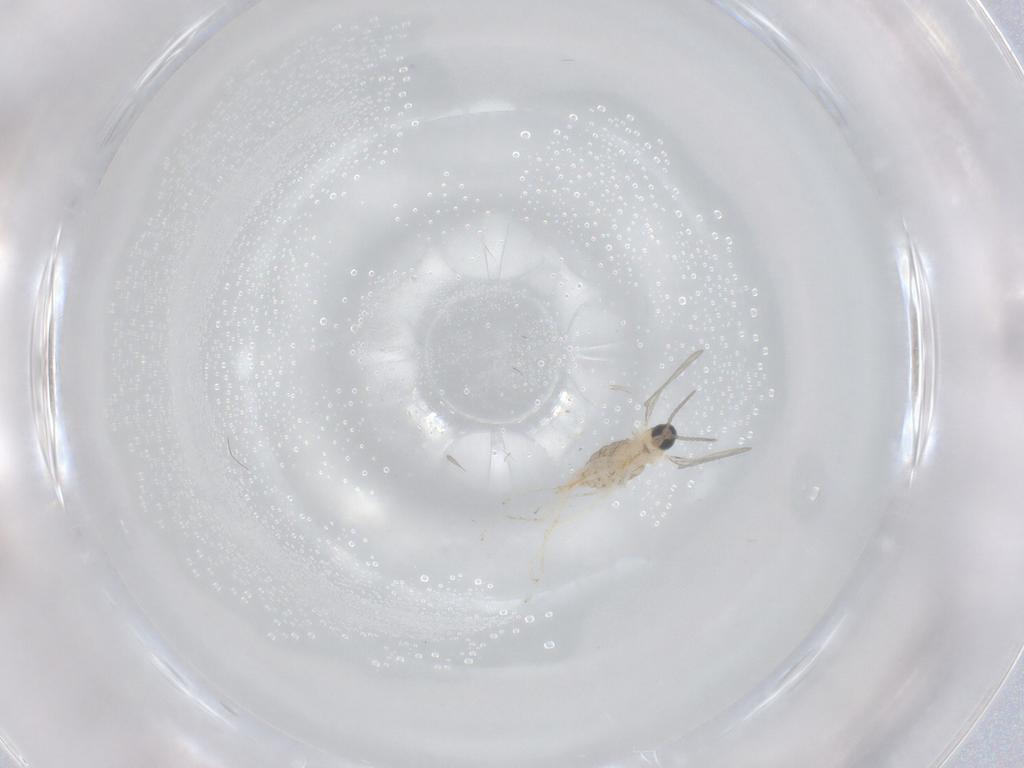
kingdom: Animalia
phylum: Arthropoda
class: Insecta
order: Diptera
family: Cecidomyiidae
